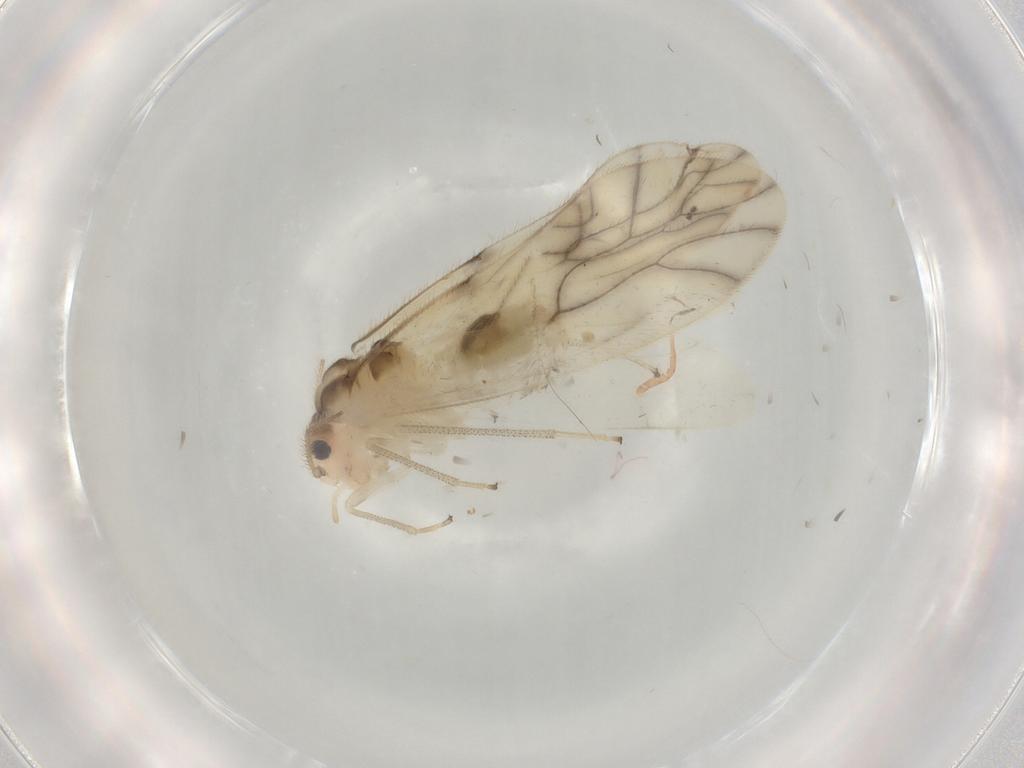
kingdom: Animalia
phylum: Arthropoda
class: Insecta
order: Psocodea
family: Caeciliusidae
